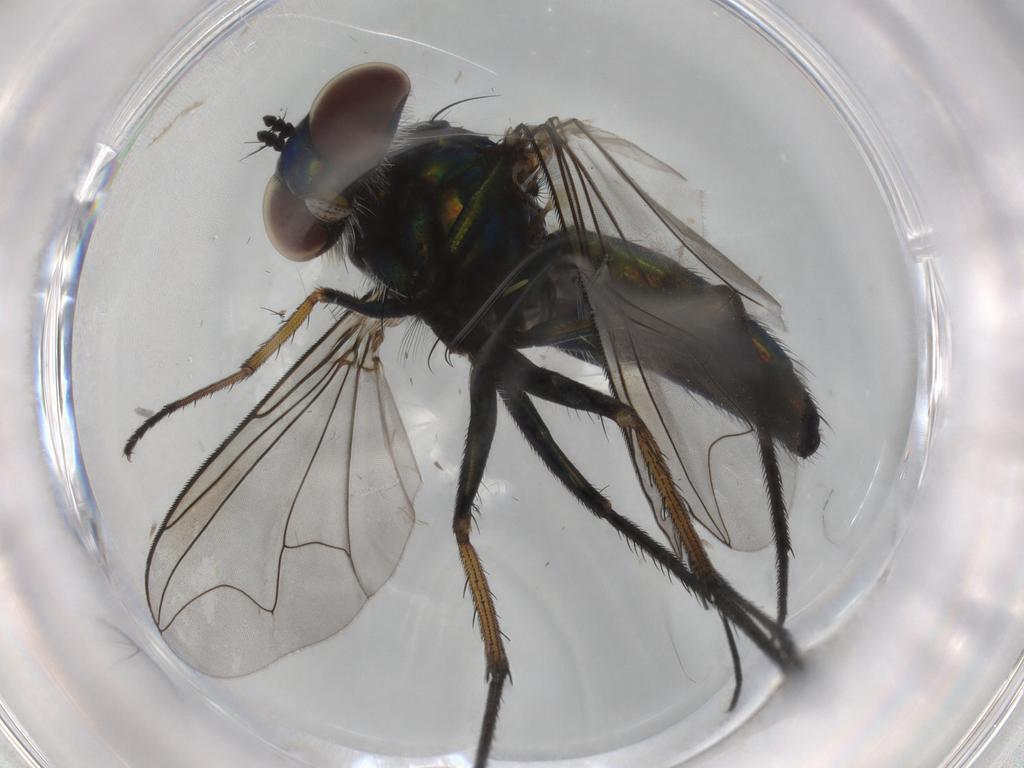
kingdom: Animalia
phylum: Arthropoda
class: Insecta
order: Diptera
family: Dolichopodidae
